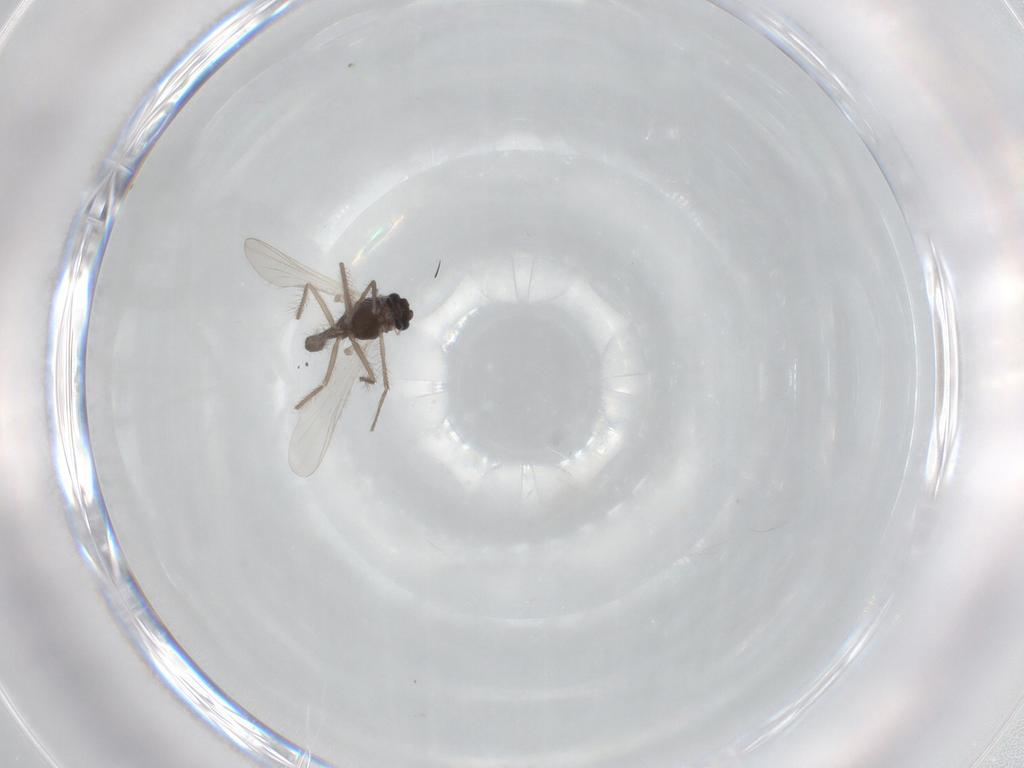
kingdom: Animalia
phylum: Arthropoda
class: Insecta
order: Diptera
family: Chironomidae
